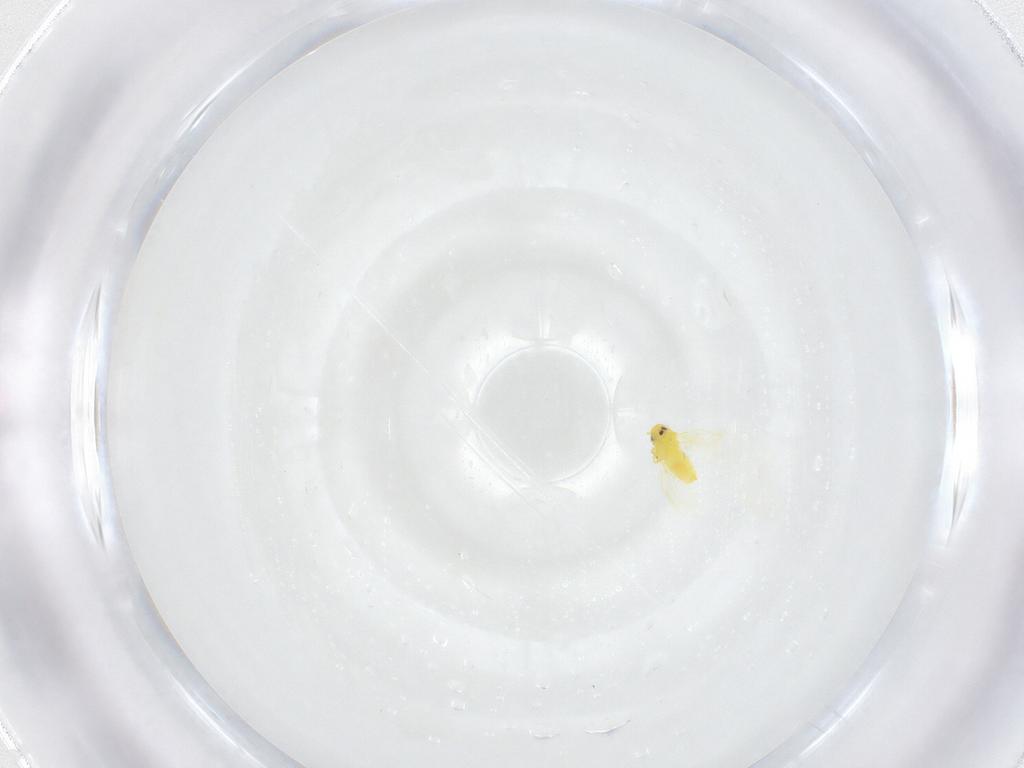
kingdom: Animalia
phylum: Arthropoda
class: Insecta
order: Hemiptera
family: Aleyrodidae
